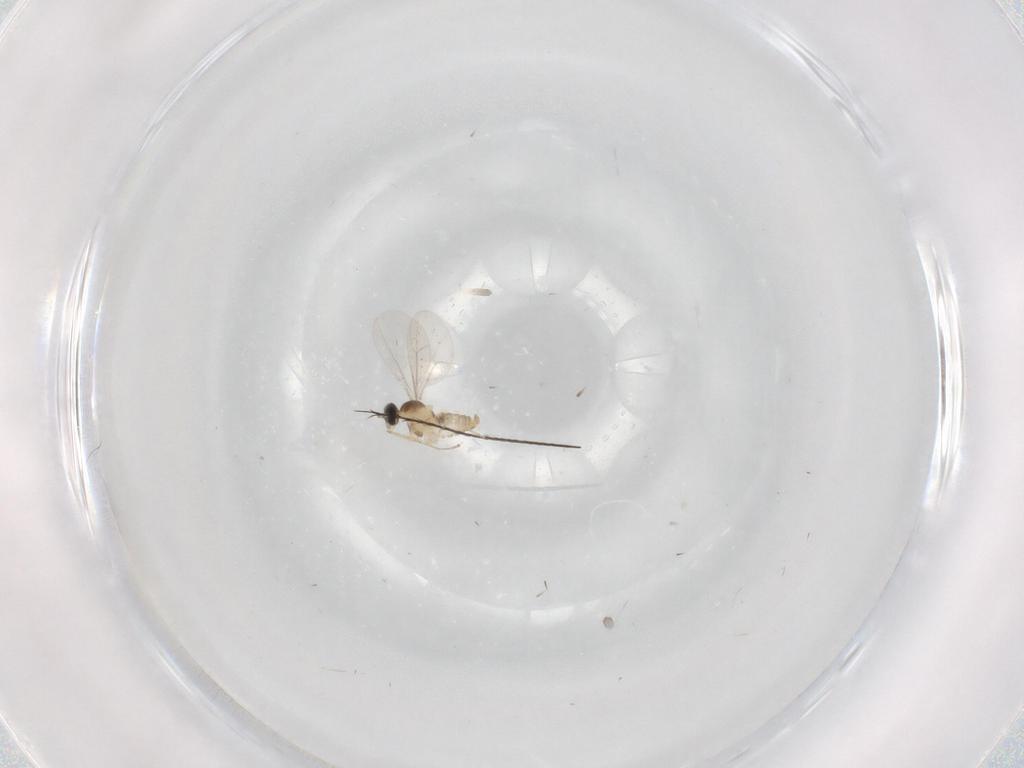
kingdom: Animalia
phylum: Arthropoda
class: Insecta
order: Diptera
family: Cecidomyiidae
